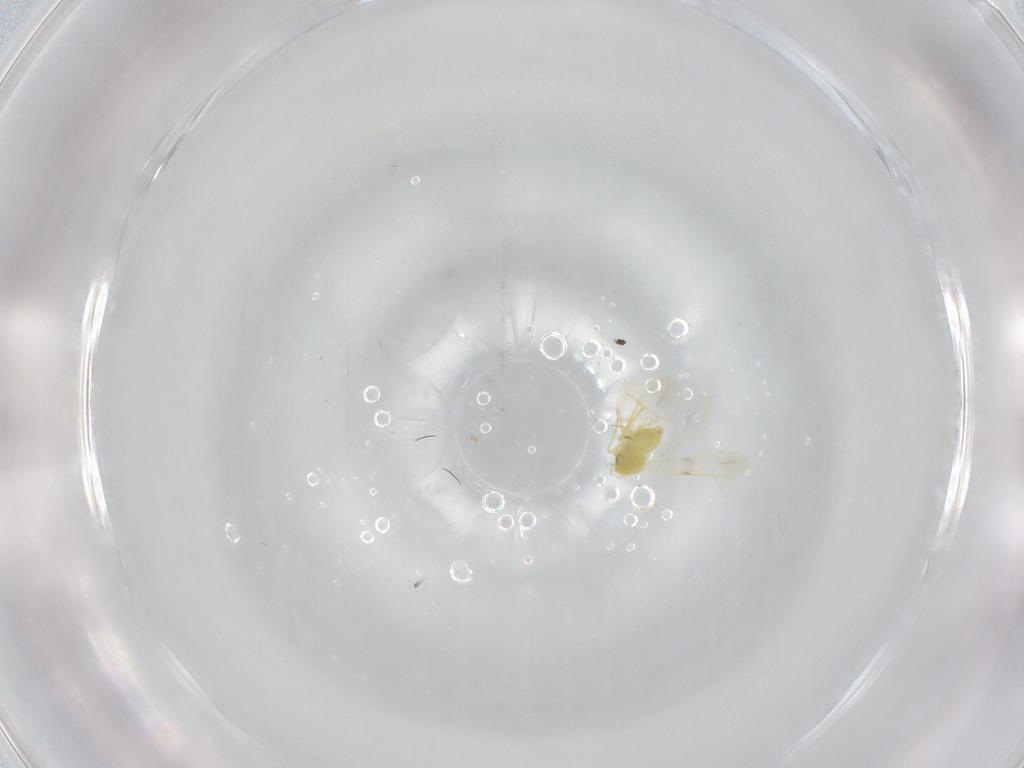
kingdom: Animalia
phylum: Arthropoda
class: Insecta
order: Hemiptera
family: Aleyrodidae
